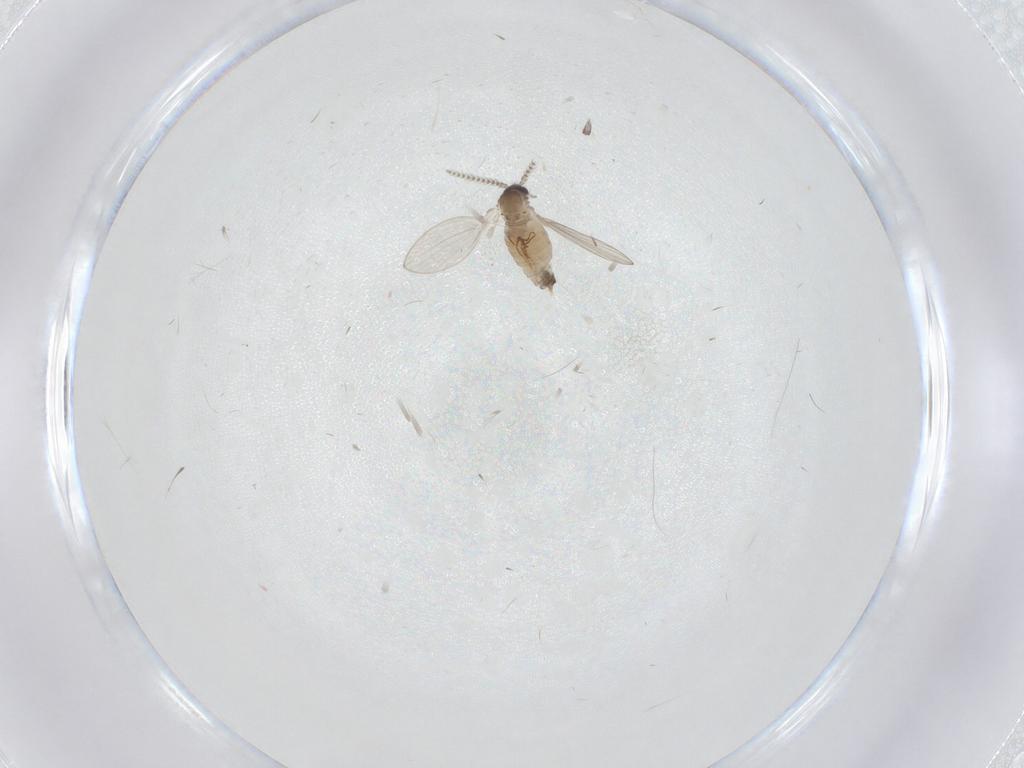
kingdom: Animalia
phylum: Arthropoda
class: Insecta
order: Diptera
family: Psychodidae
